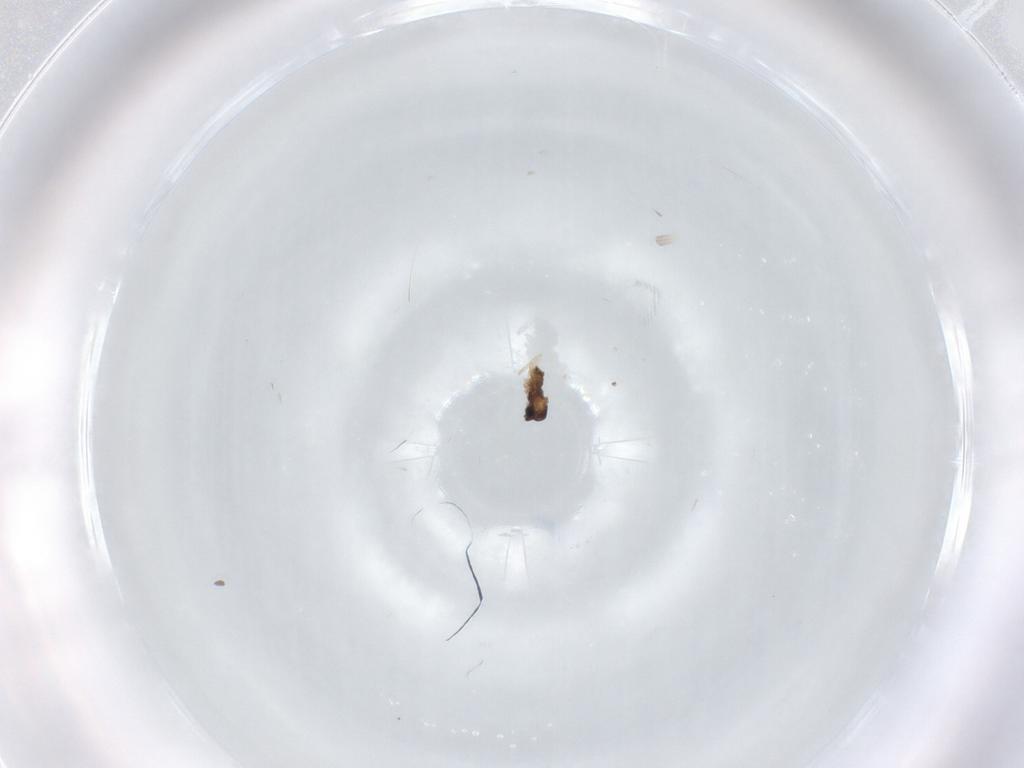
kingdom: Animalia
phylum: Arthropoda
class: Insecta
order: Diptera
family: Cecidomyiidae
